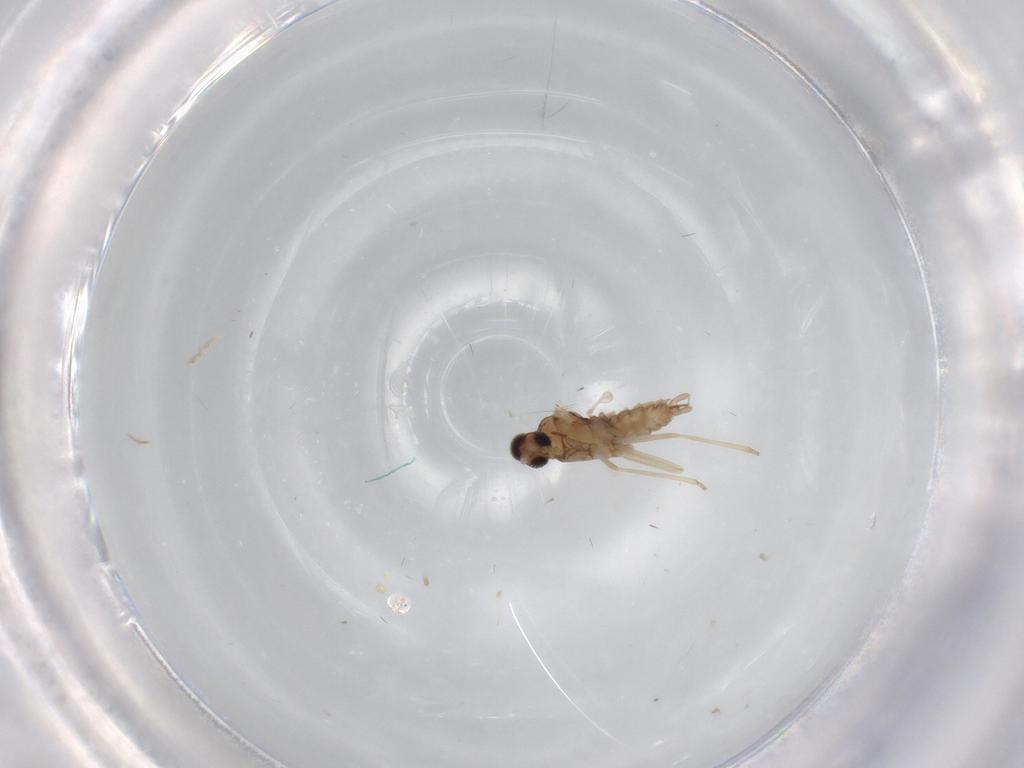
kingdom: Animalia
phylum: Arthropoda
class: Insecta
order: Diptera
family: Cecidomyiidae
